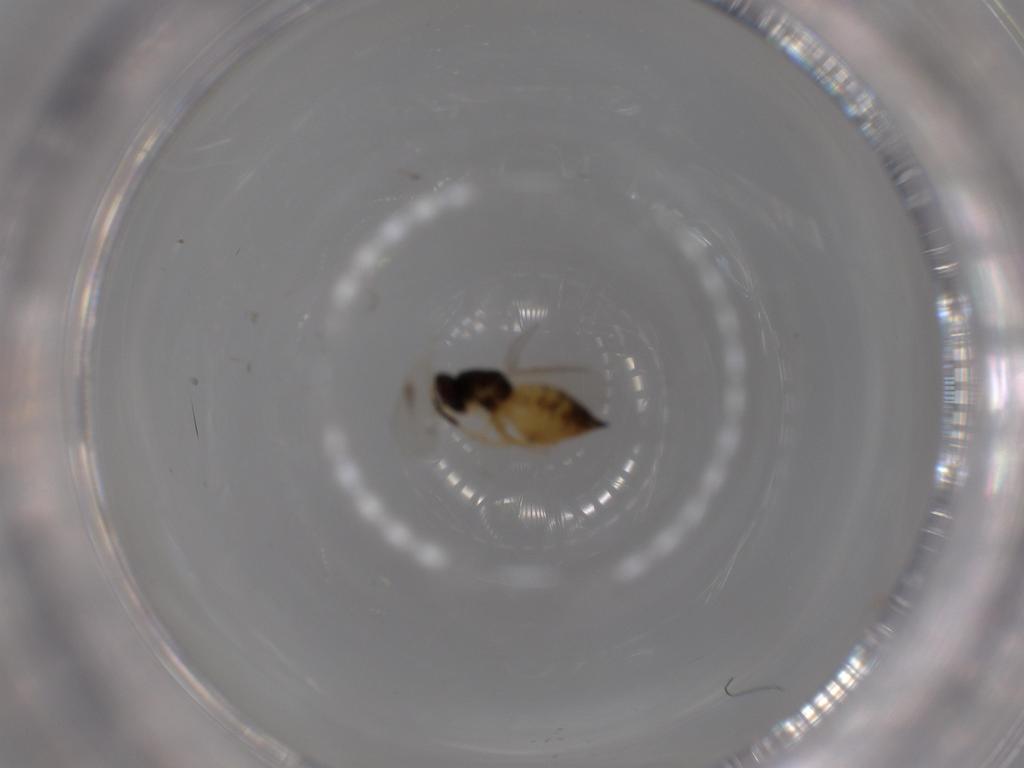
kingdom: Animalia
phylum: Arthropoda
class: Insecta
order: Hymenoptera
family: Eulophidae
